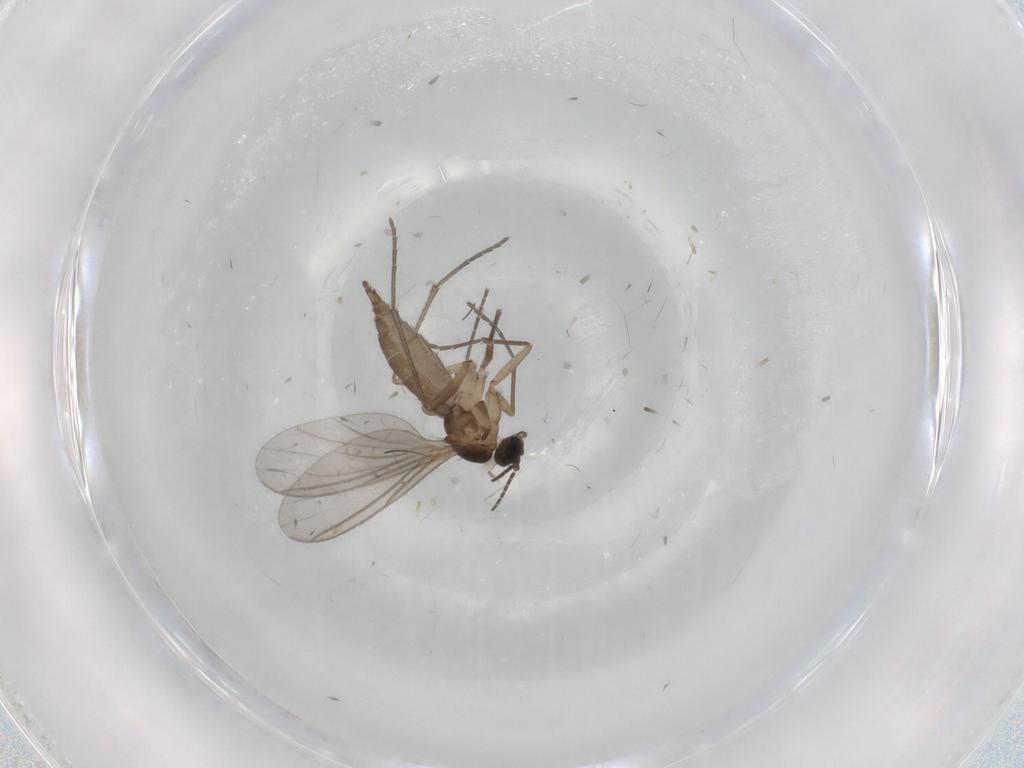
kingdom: Animalia
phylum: Arthropoda
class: Insecta
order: Diptera
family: Sciaridae
